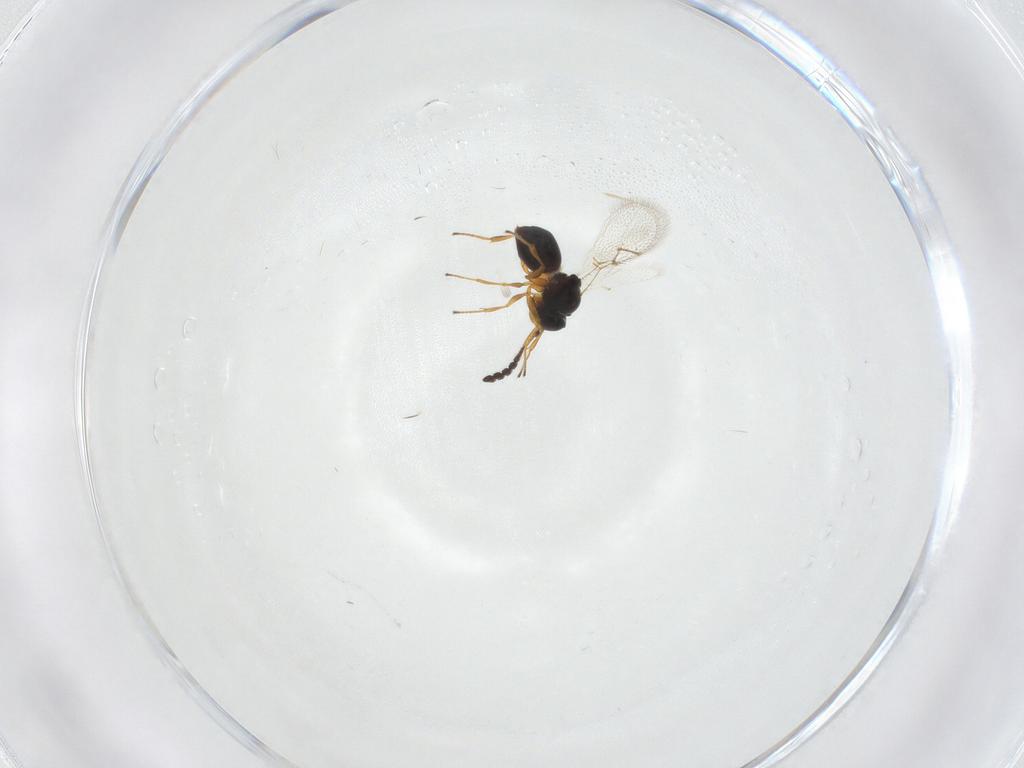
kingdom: Animalia
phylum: Arthropoda
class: Insecta
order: Hymenoptera
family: Figitidae
